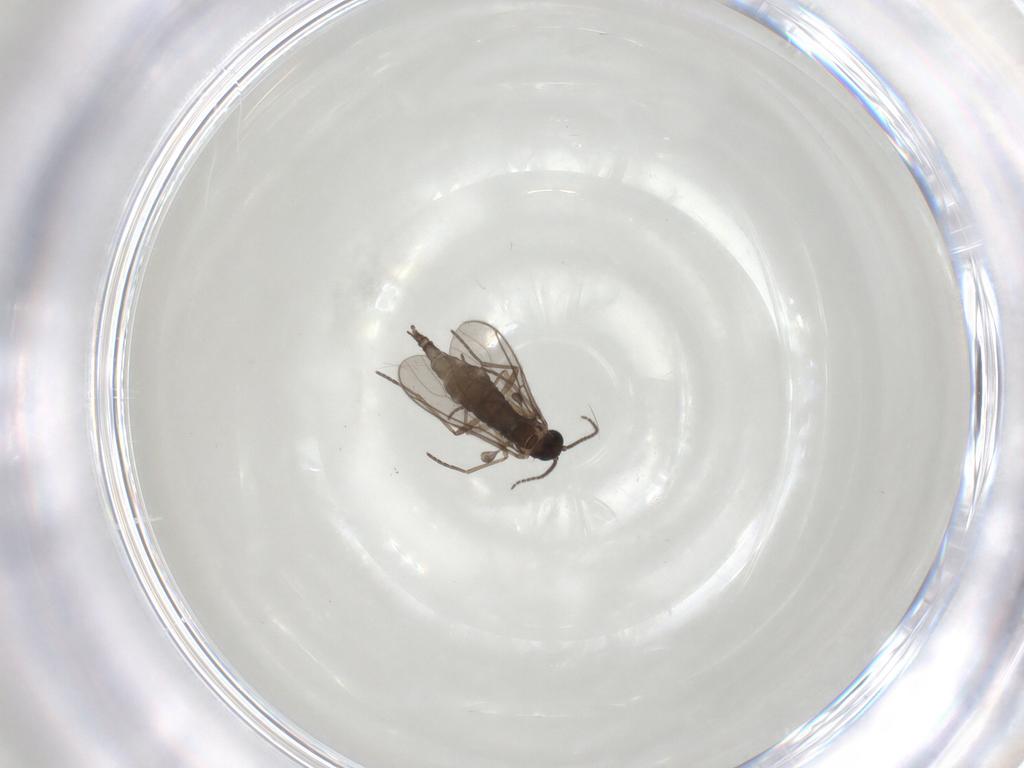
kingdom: Animalia
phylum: Arthropoda
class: Insecta
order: Diptera
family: Sciaridae
